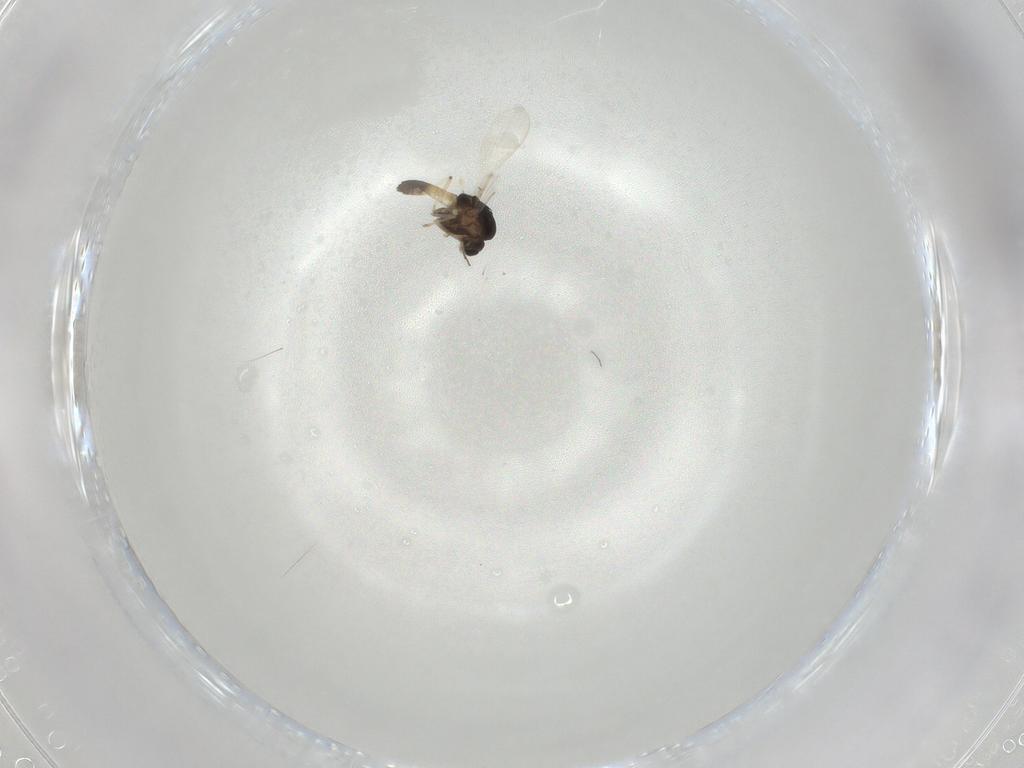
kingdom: Animalia
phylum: Arthropoda
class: Insecta
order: Diptera
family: Chironomidae
